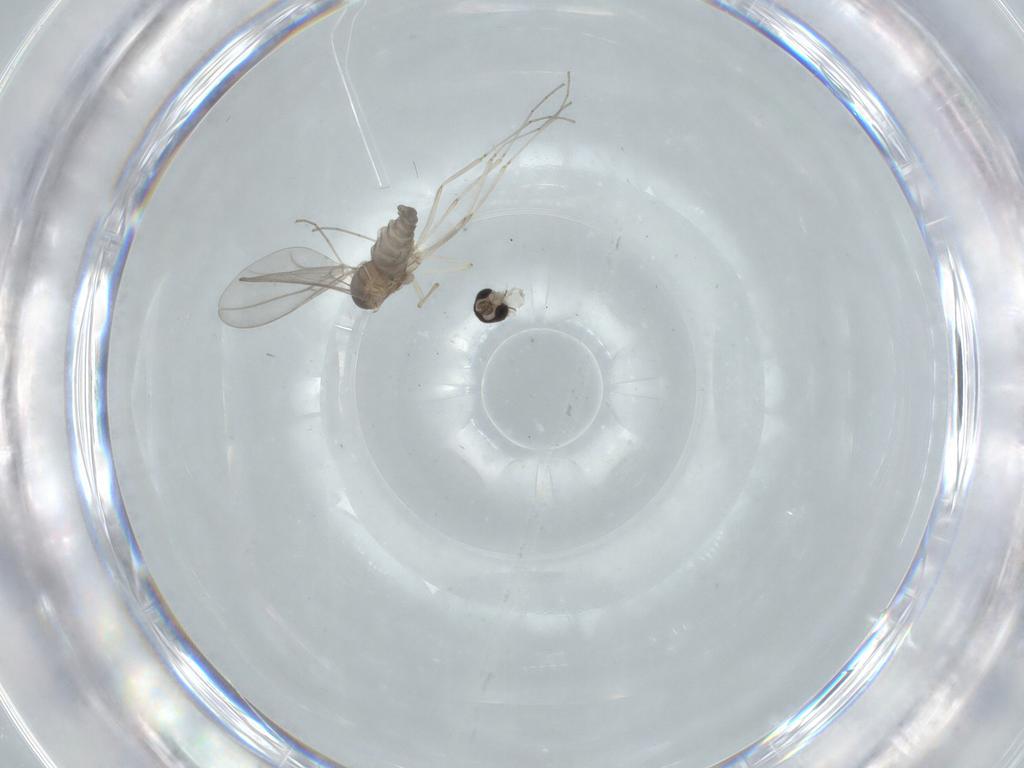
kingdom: Animalia
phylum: Arthropoda
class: Insecta
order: Diptera
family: Cecidomyiidae
